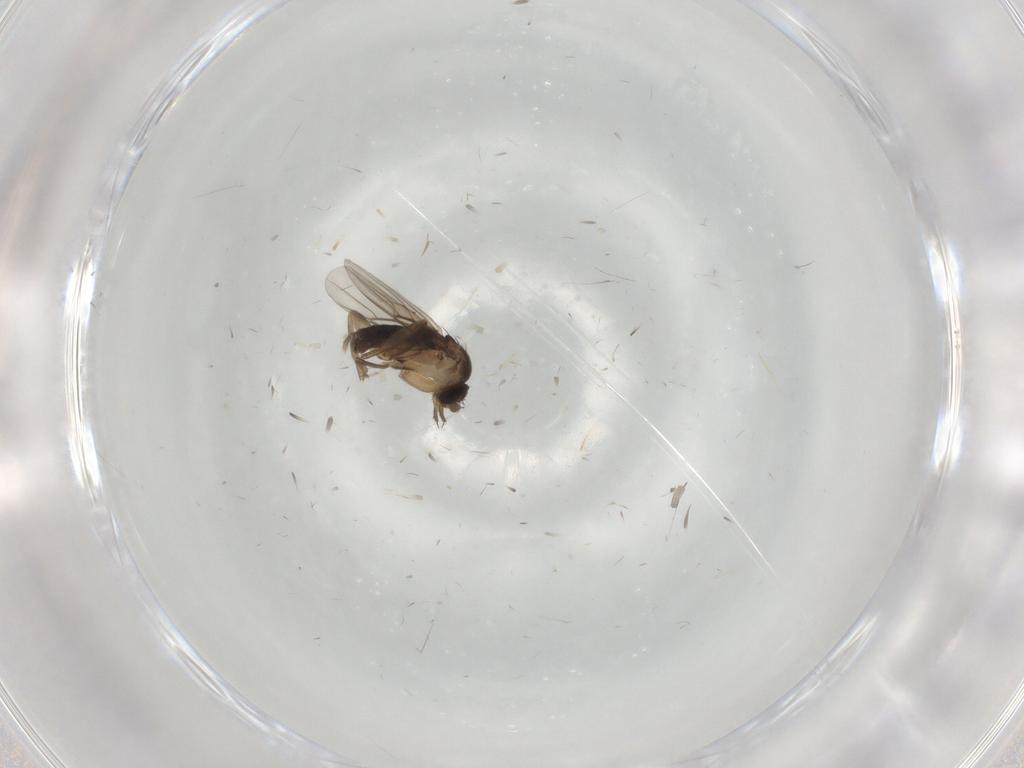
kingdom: Animalia
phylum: Arthropoda
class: Insecta
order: Diptera
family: Phoridae
